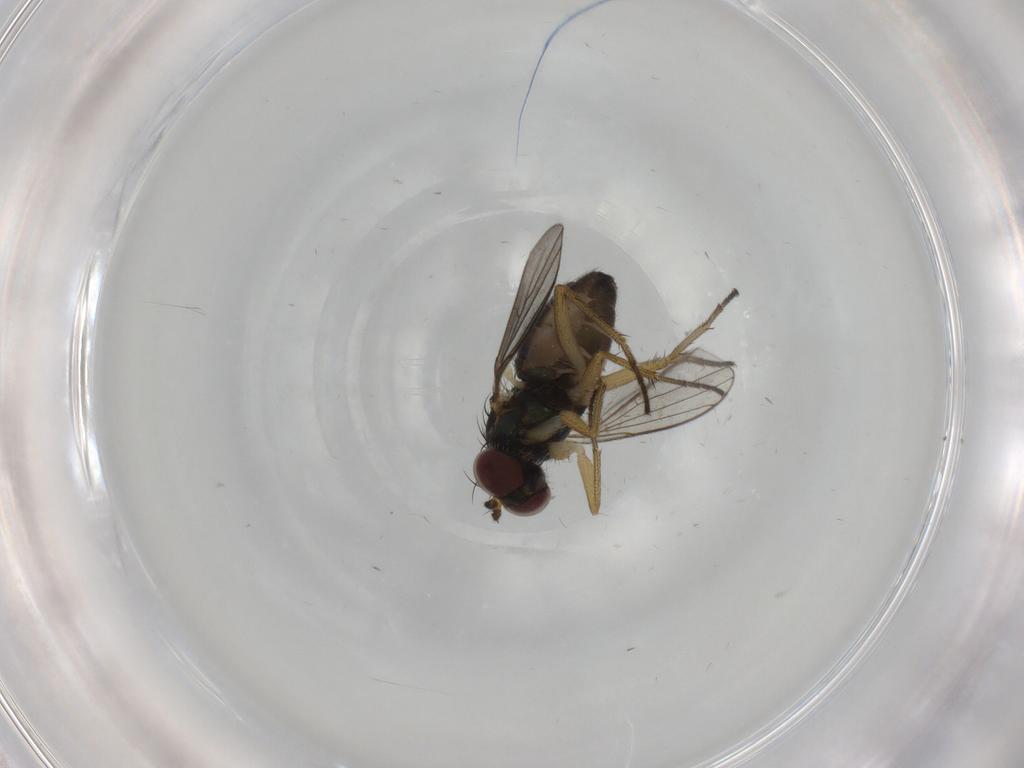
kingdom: Animalia
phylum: Arthropoda
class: Insecta
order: Diptera
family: Dolichopodidae
